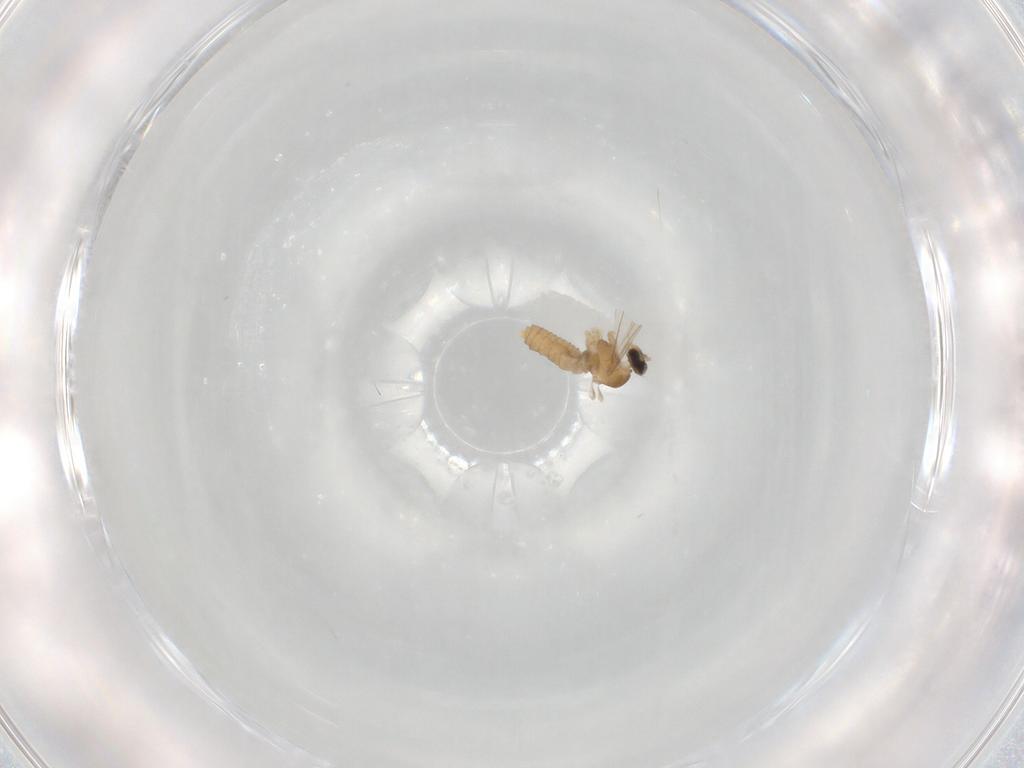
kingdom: Animalia
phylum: Arthropoda
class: Insecta
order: Diptera
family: Cecidomyiidae
